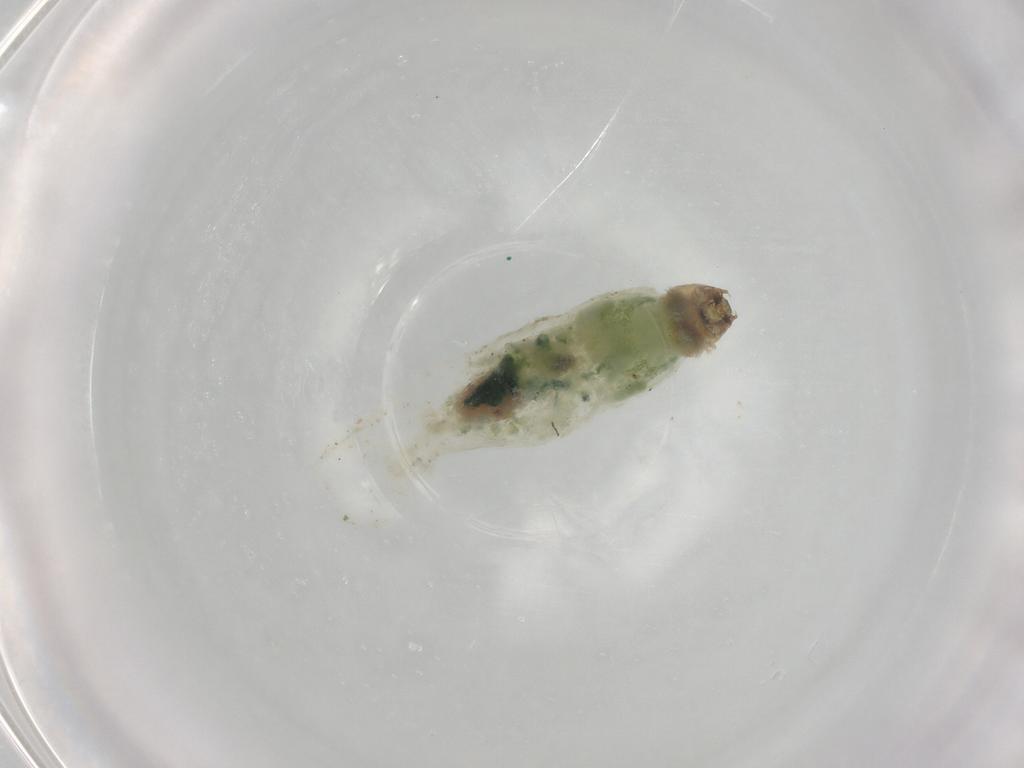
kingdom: Animalia
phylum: Arthropoda
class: Insecta
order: Diptera
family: Chironomidae
